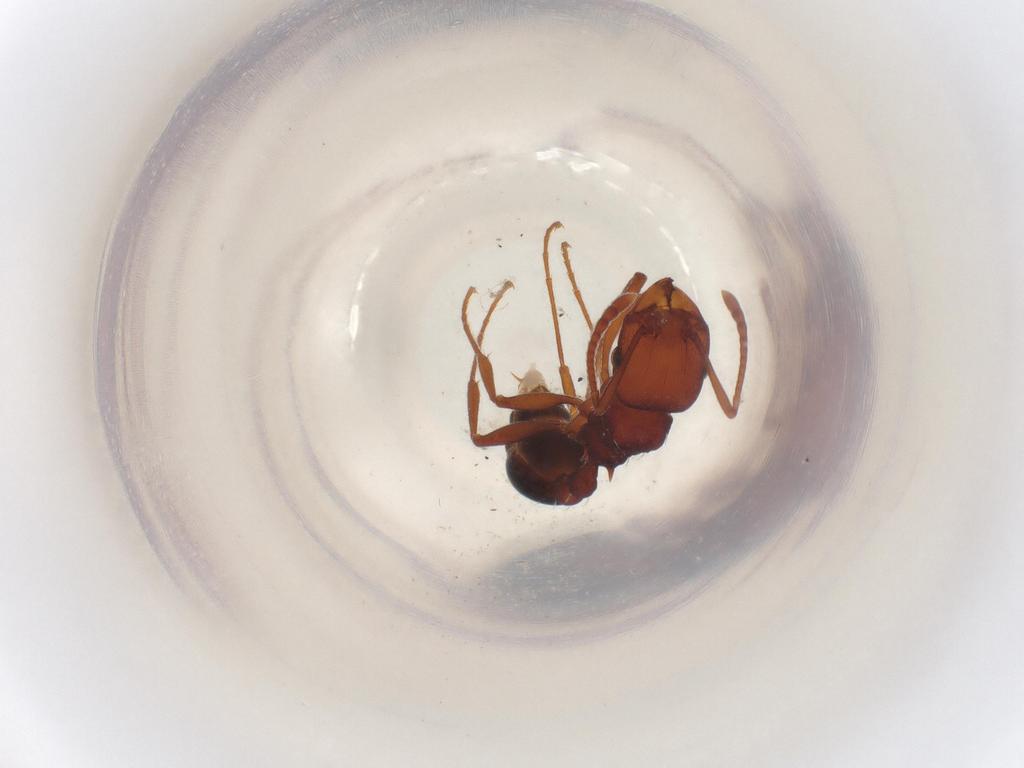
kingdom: Animalia
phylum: Arthropoda
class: Insecta
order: Hymenoptera
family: Formicidae
